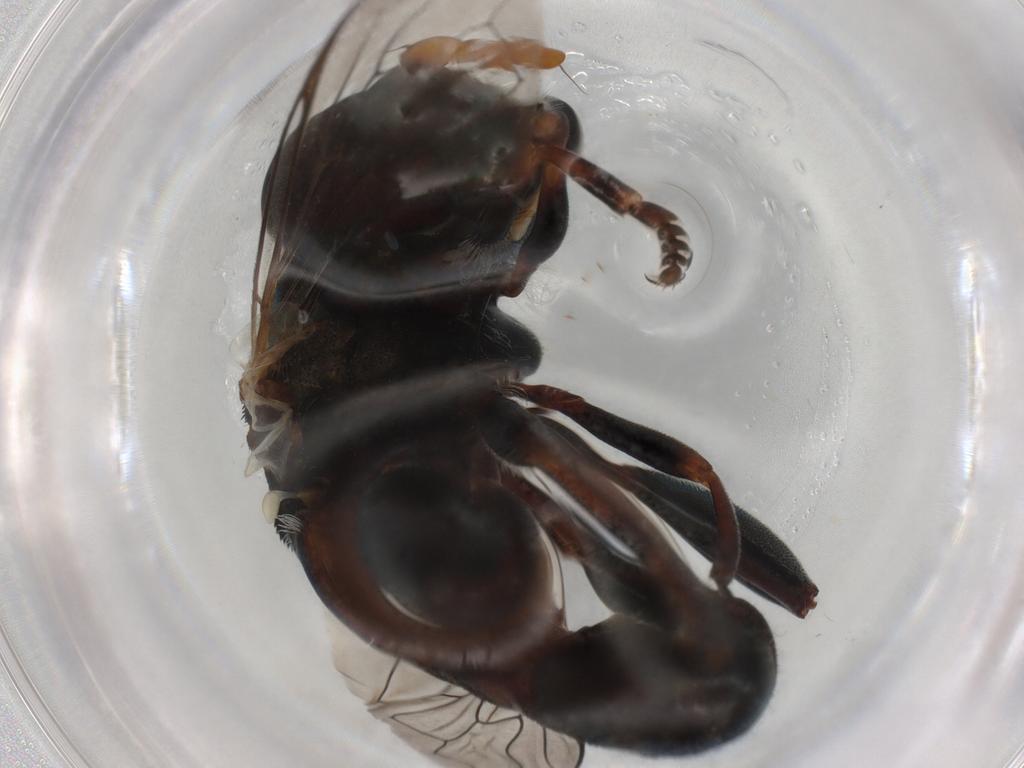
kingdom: Animalia
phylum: Arthropoda
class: Insecta
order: Diptera
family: Syrphidae
